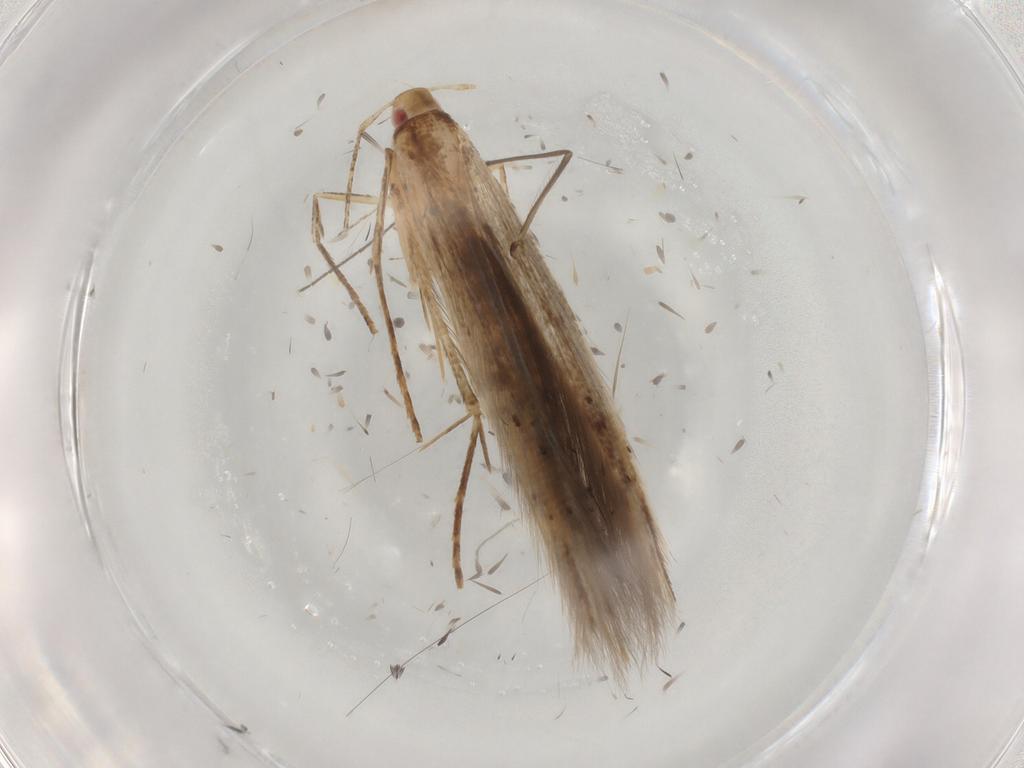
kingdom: Animalia
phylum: Arthropoda
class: Insecta
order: Lepidoptera
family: Cosmopterigidae
